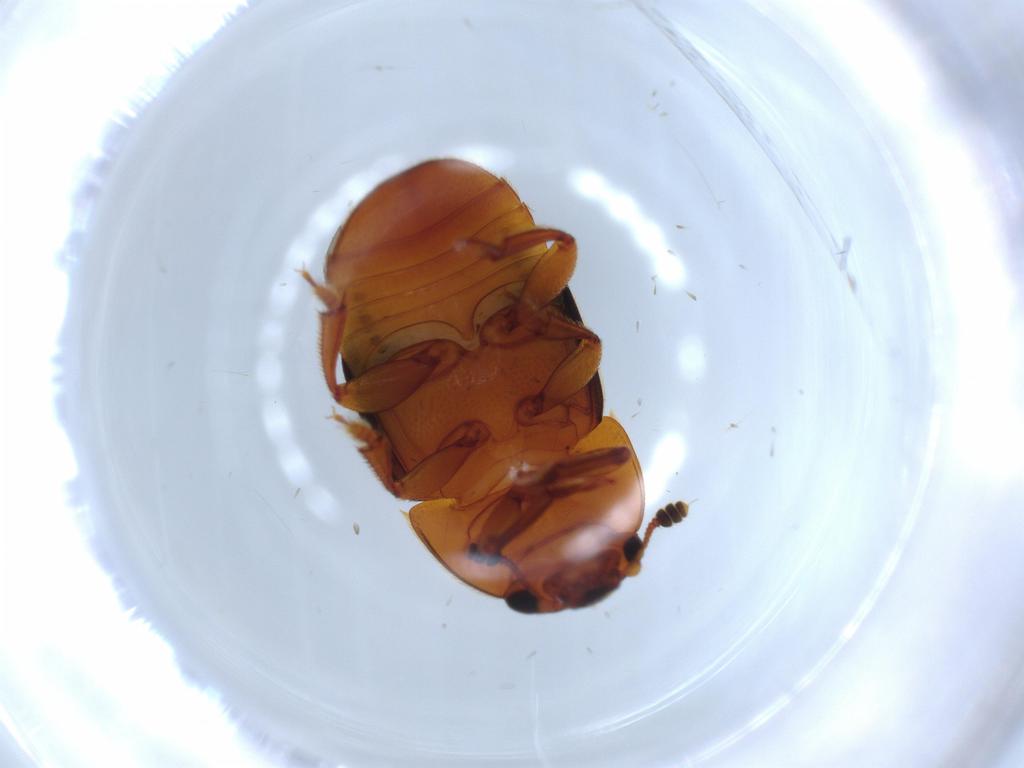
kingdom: Animalia
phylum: Arthropoda
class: Insecta
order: Coleoptera
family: Nitidulidae
